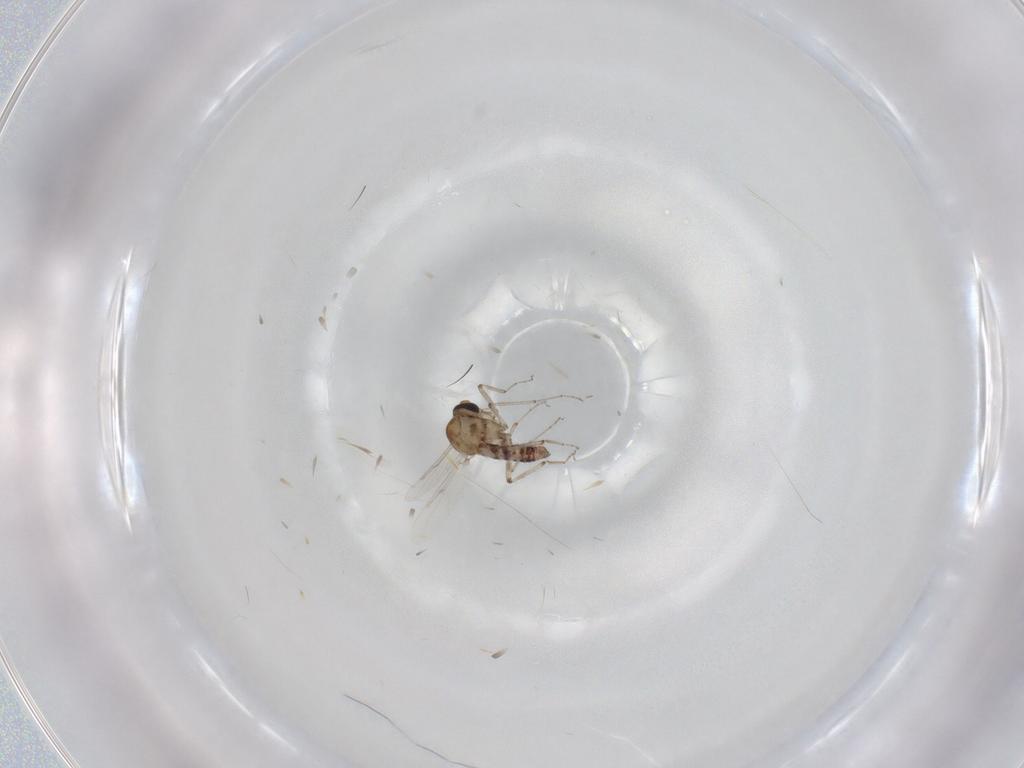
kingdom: Animalia
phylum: Arthropoda
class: Insecta
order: Diptera
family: Ceratopogonidae
